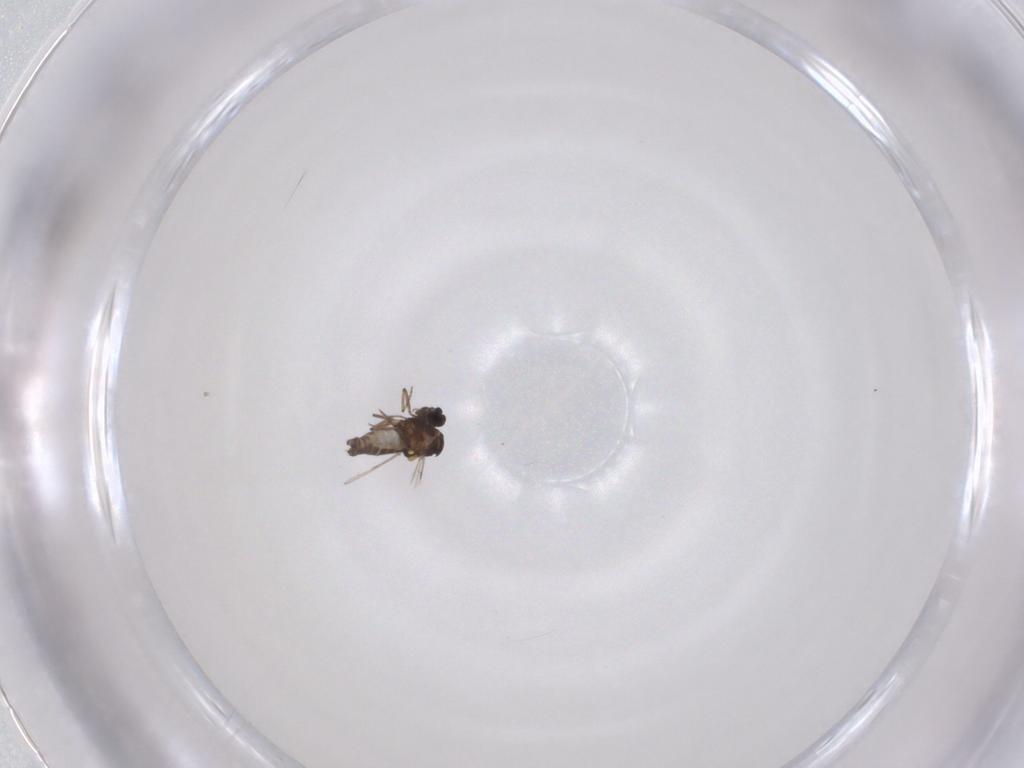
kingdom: Animalia
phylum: Arthropoda
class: Insecta
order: Diptera
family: Ceratopogonidae
